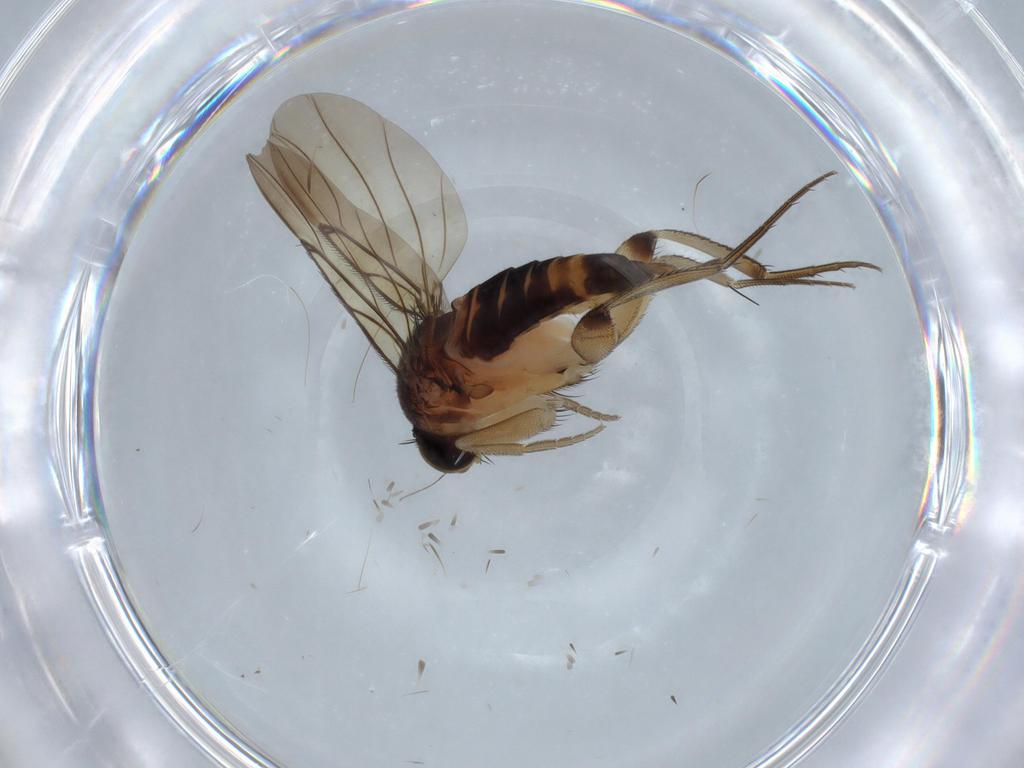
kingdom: Animalia
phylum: Arthropoda
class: Insecta
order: Diptera
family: Phoridae
